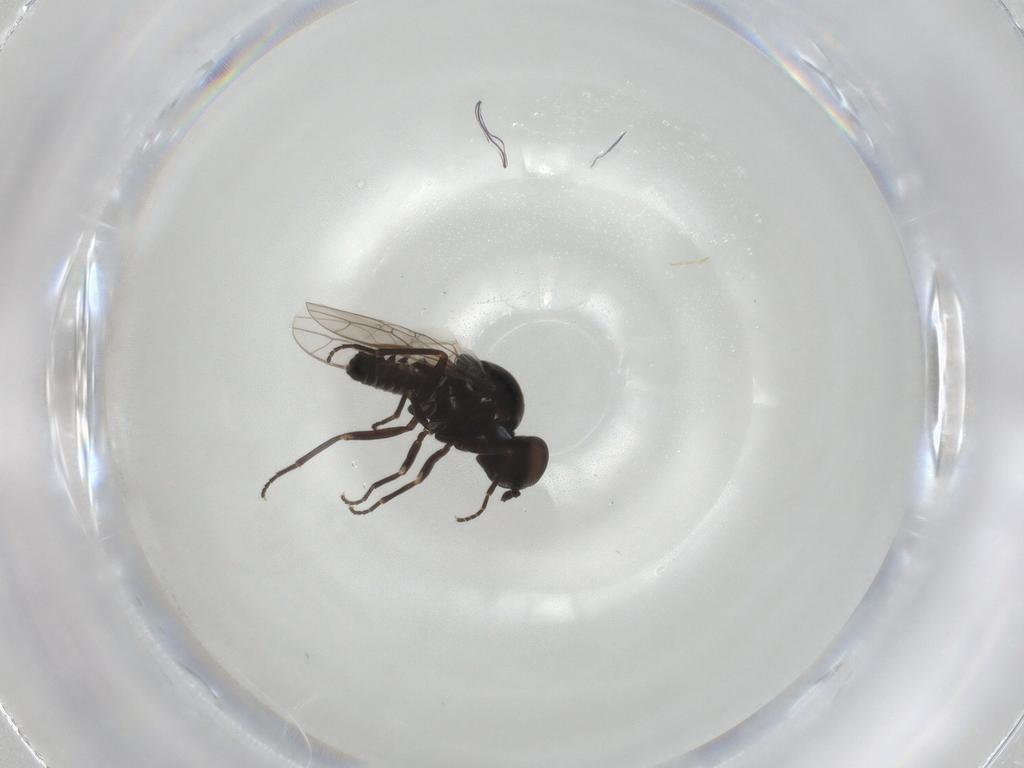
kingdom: Animalia
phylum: Arthropoda
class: Insecta
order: Diptera
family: Scenopinidae
